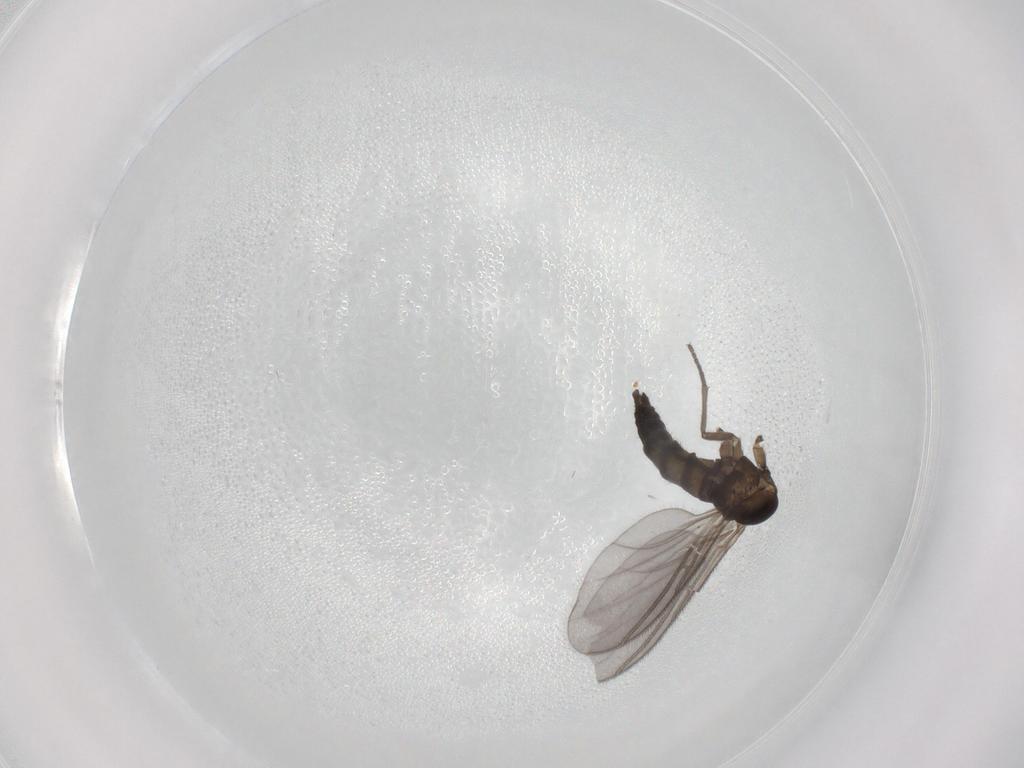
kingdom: Animalia
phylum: Arthropoda
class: Insecta
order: Diptera
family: Sciaridae
